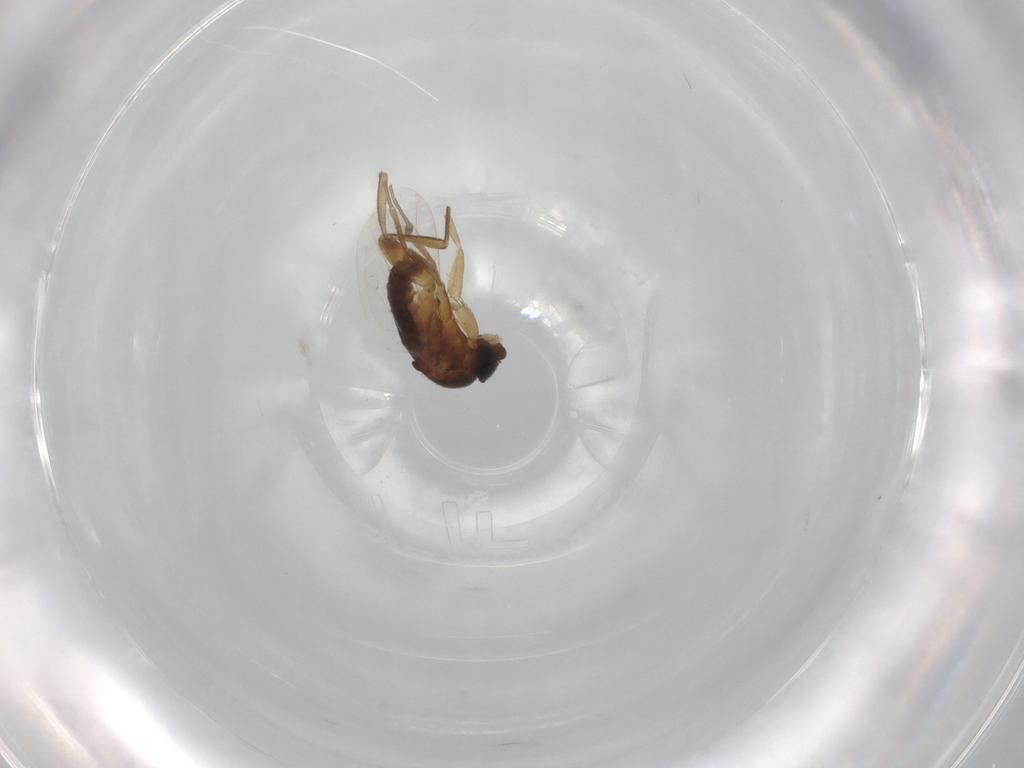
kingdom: Animalia
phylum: Arthropoda
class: Insecta
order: Diptera
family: Phoridae
